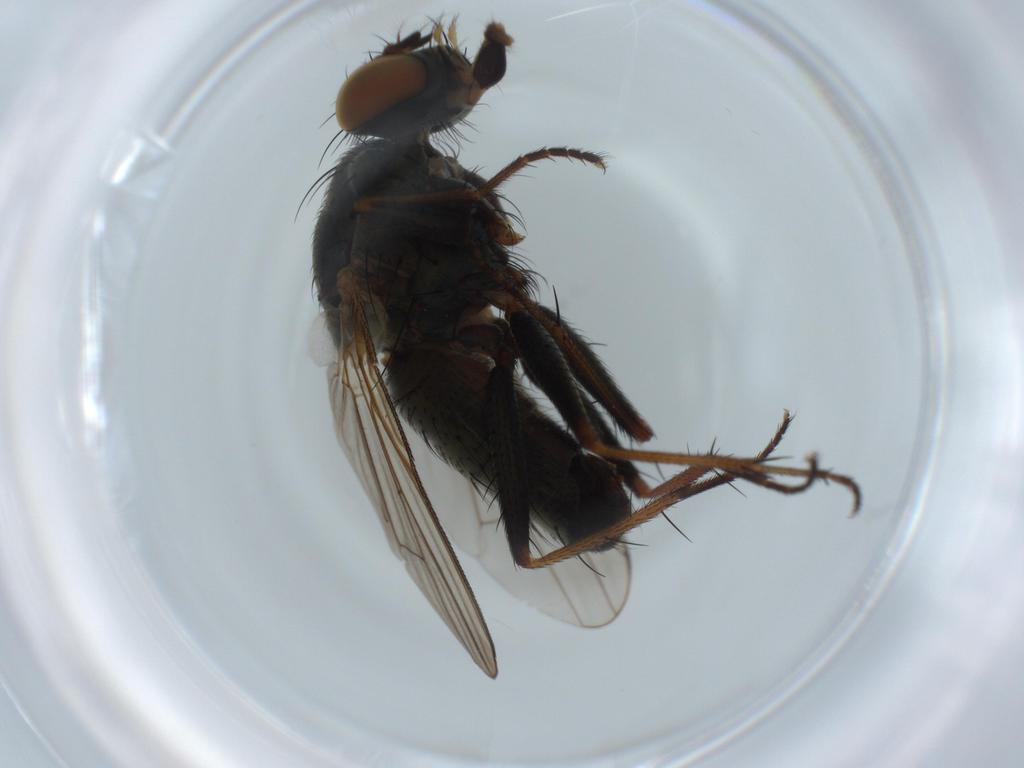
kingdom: Animalia
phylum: Arthropoda
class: Insecta
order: Diptera
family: Muscidae
